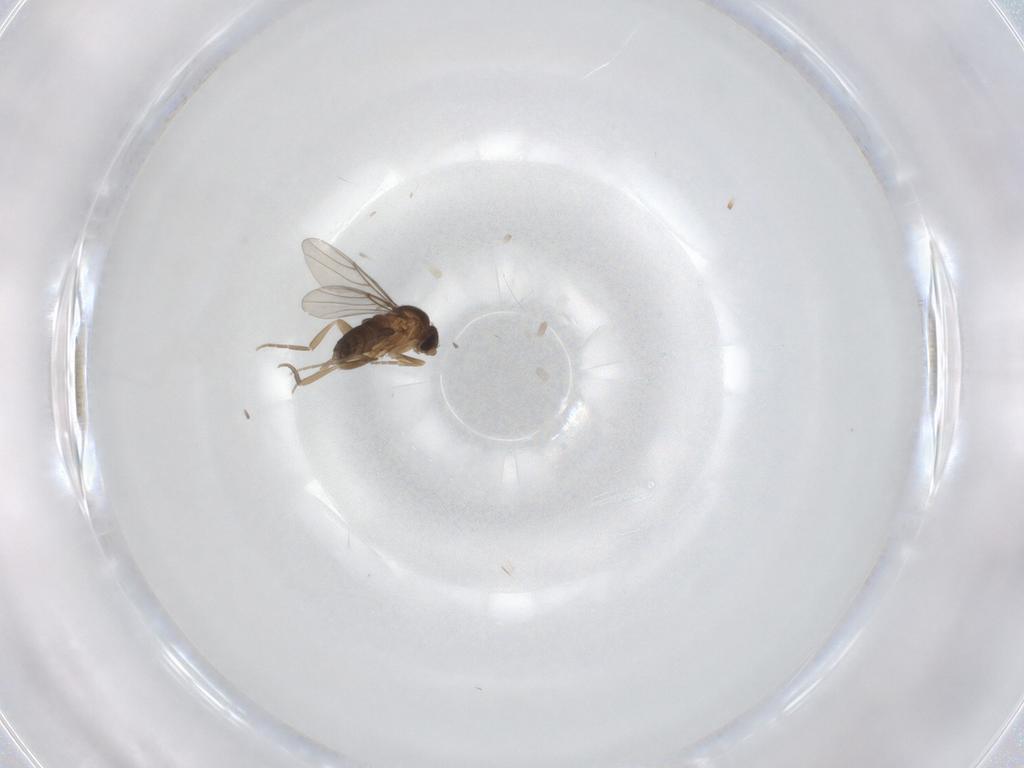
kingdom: Animalia
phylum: Arthropoda
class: Insecta
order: Diptera
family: Phoridae
